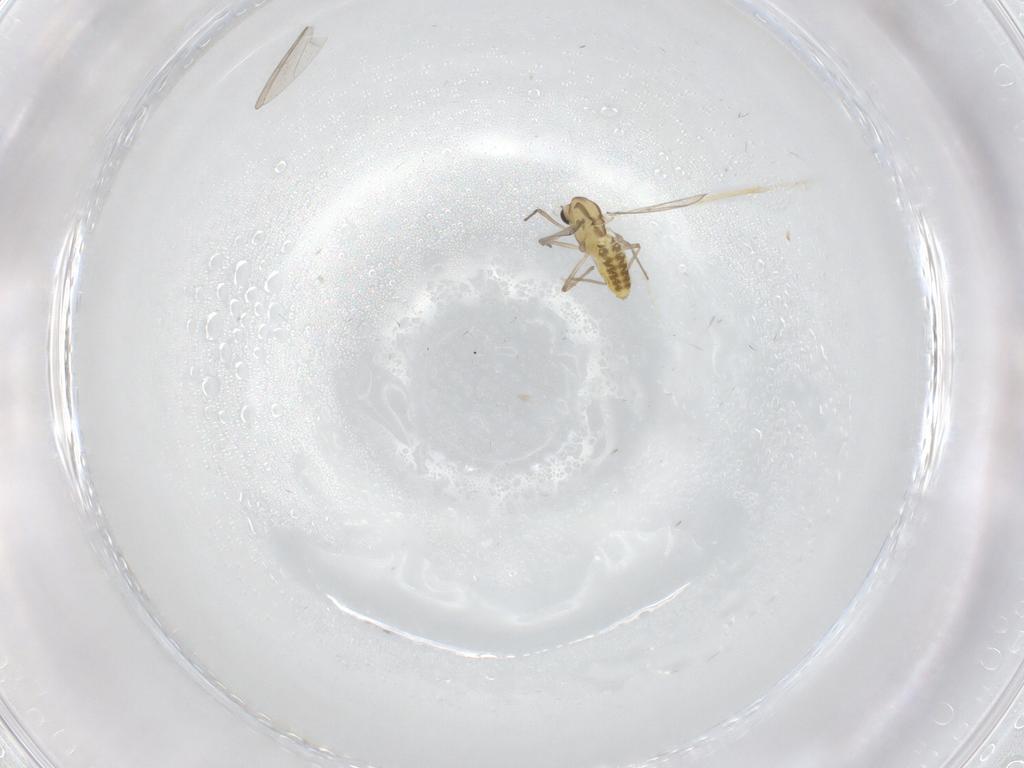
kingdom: Animalia
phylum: Arthropoda
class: Insecta
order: Diptera
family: Chironomidae
